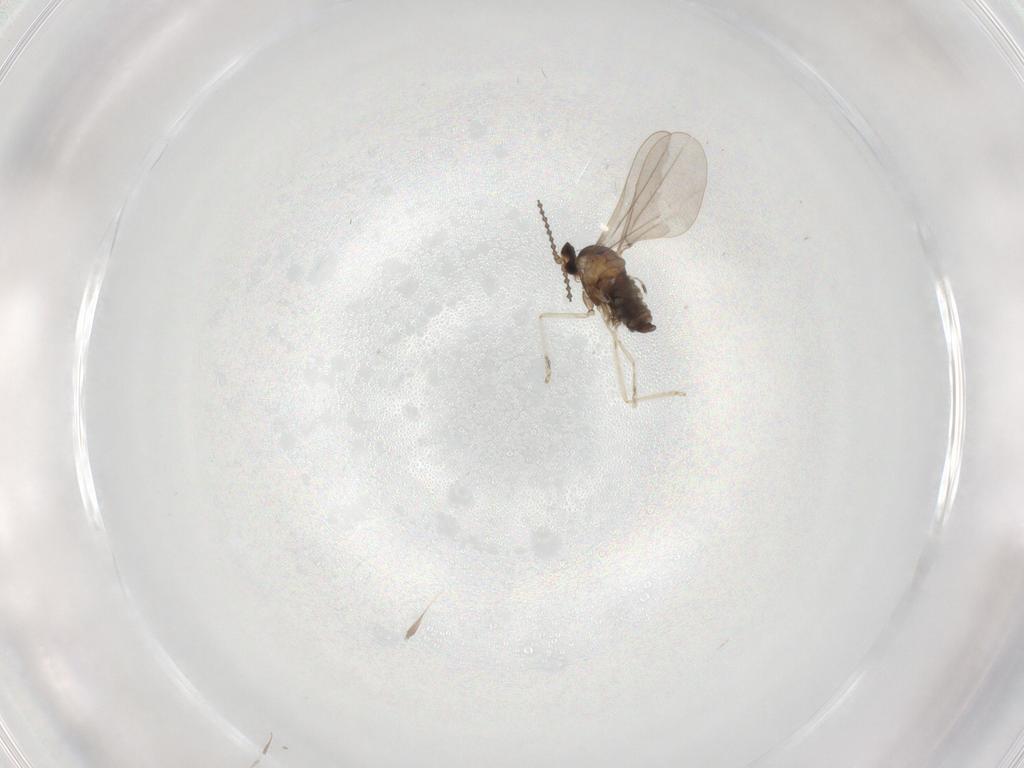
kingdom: Animalia
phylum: Arthropoda
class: Insecta
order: Diptera
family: Cecidomyiidae
